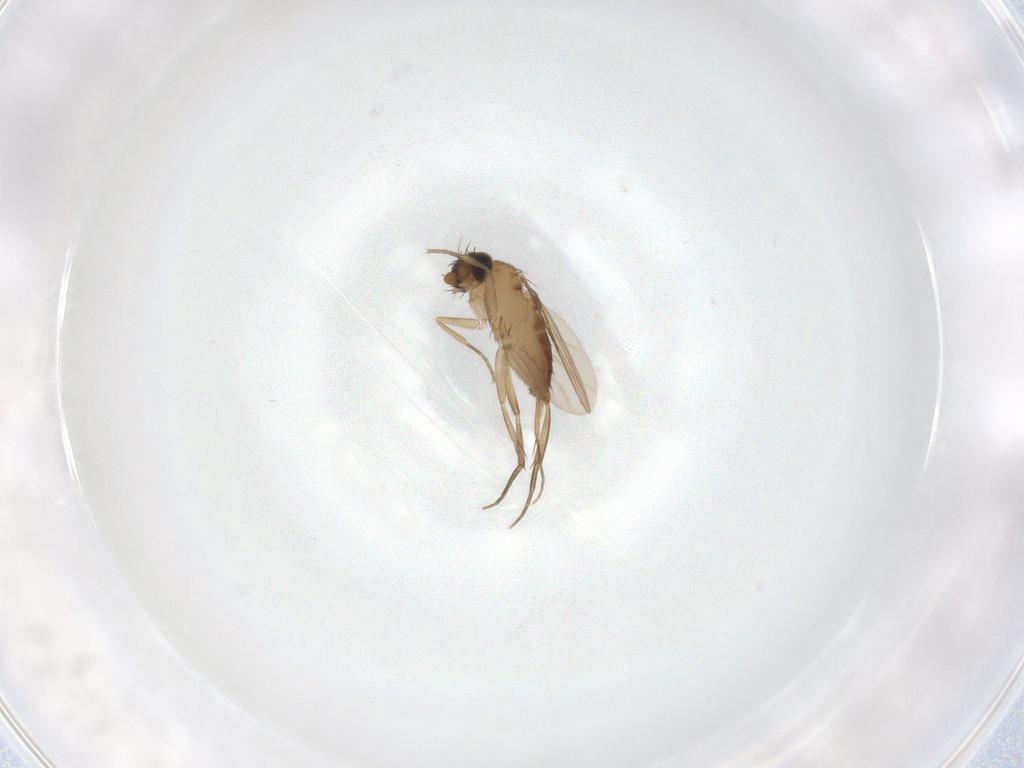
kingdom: Animalia
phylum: Arthropoda
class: Insecta
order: Diptera
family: Phoridae
